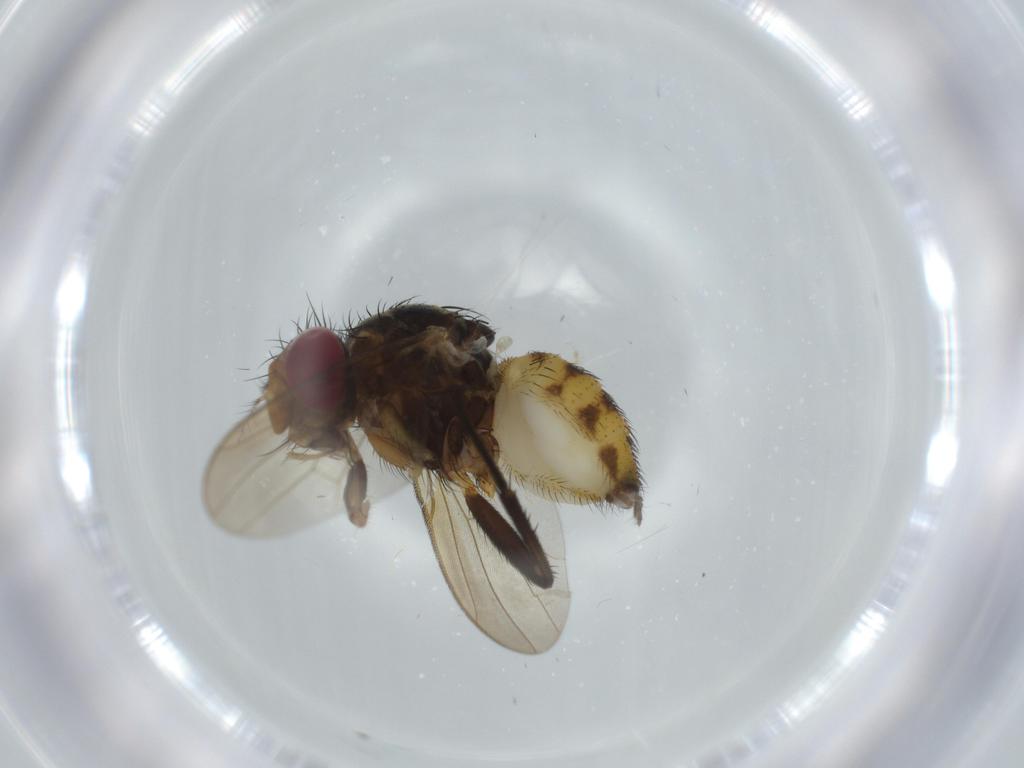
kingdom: Animalia
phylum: Arthropoda
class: Insecta
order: Diptera
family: Anthomyiidae
